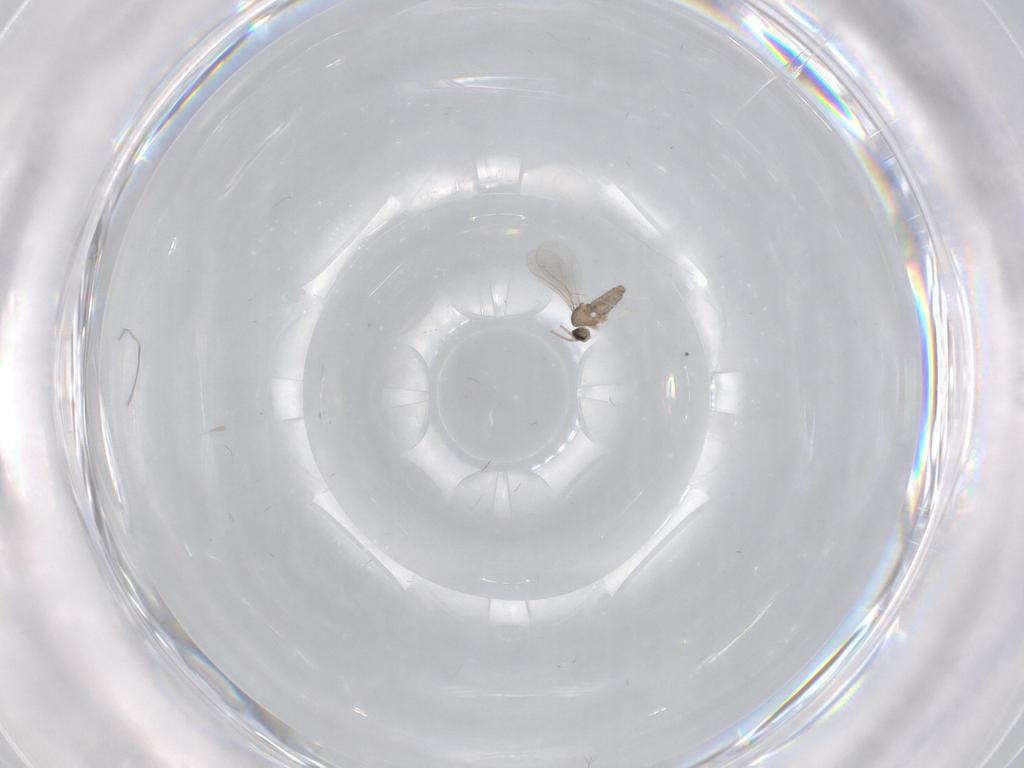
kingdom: Animalia
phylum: Arthropoda
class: Insecta
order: Diptera
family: Cecidomyiidae
